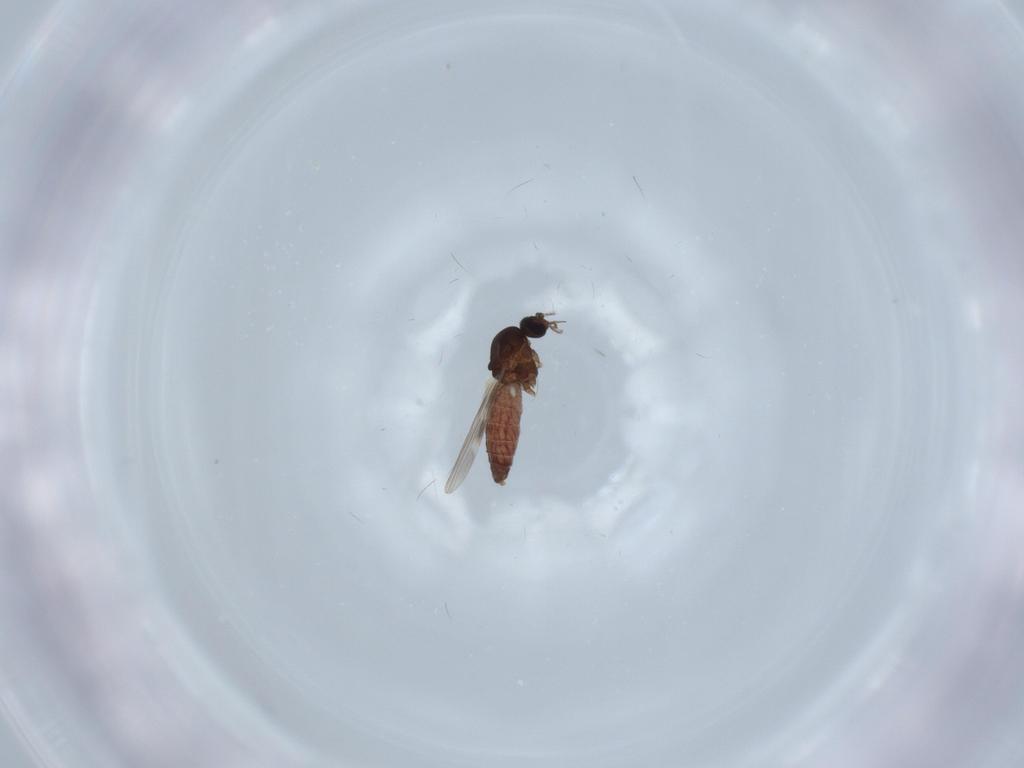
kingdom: Animalia
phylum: Arthropoda
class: Insecta
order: Diptera
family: Ceratopogonidae
